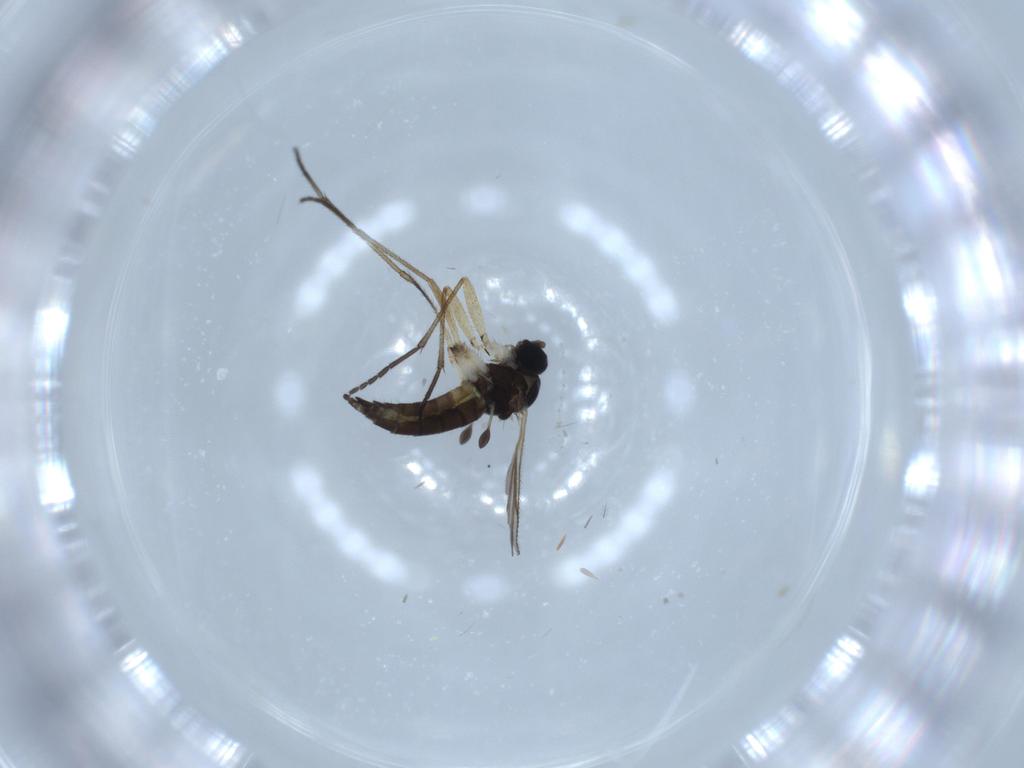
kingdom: Animalia
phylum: Arthropoda
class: Insecta
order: Diptera
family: Sciaridae
